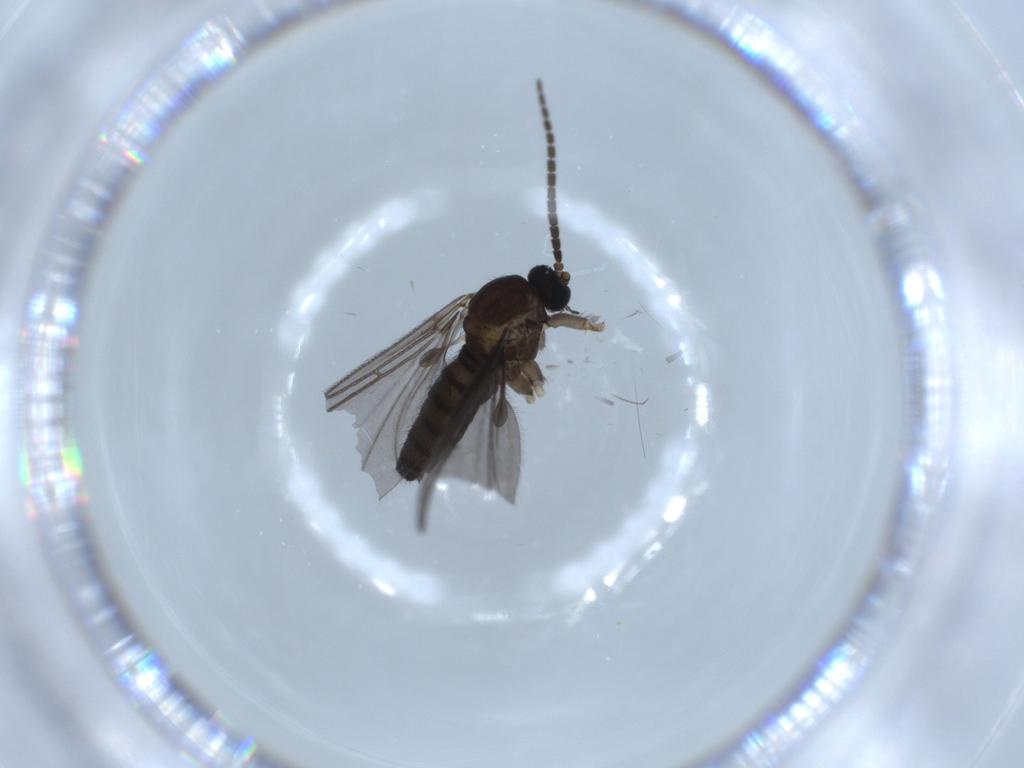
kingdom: Animalia
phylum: Arthropoda
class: Insecta
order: Diptera
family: Sciaridae
